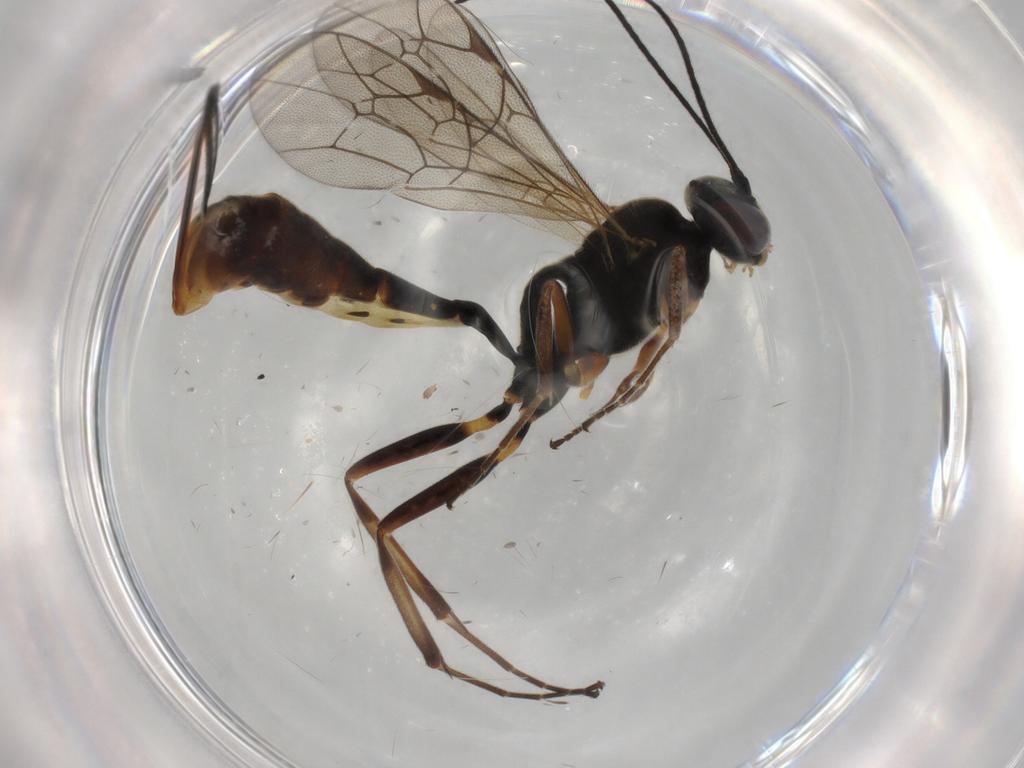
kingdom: Animalia
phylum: Arthropoda
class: Insecta
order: Hymenoptera
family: Ichneumonidae
